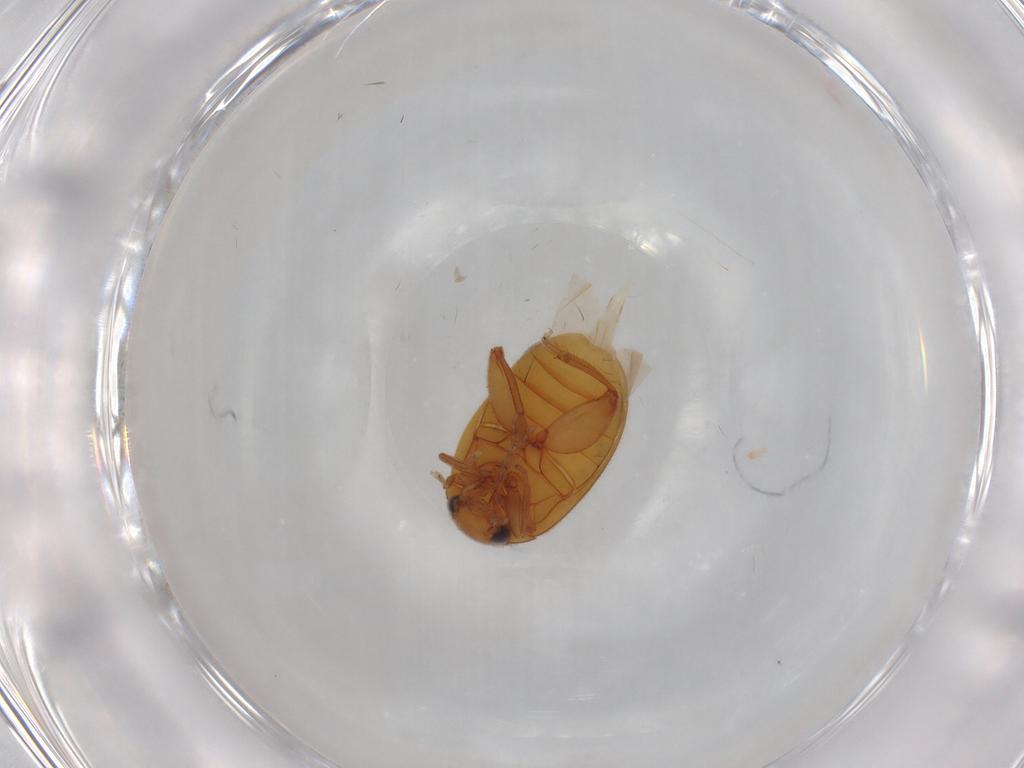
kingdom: Animalia
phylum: Arthropoda
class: Insecta
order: Coleoptera
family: Scirtidae
